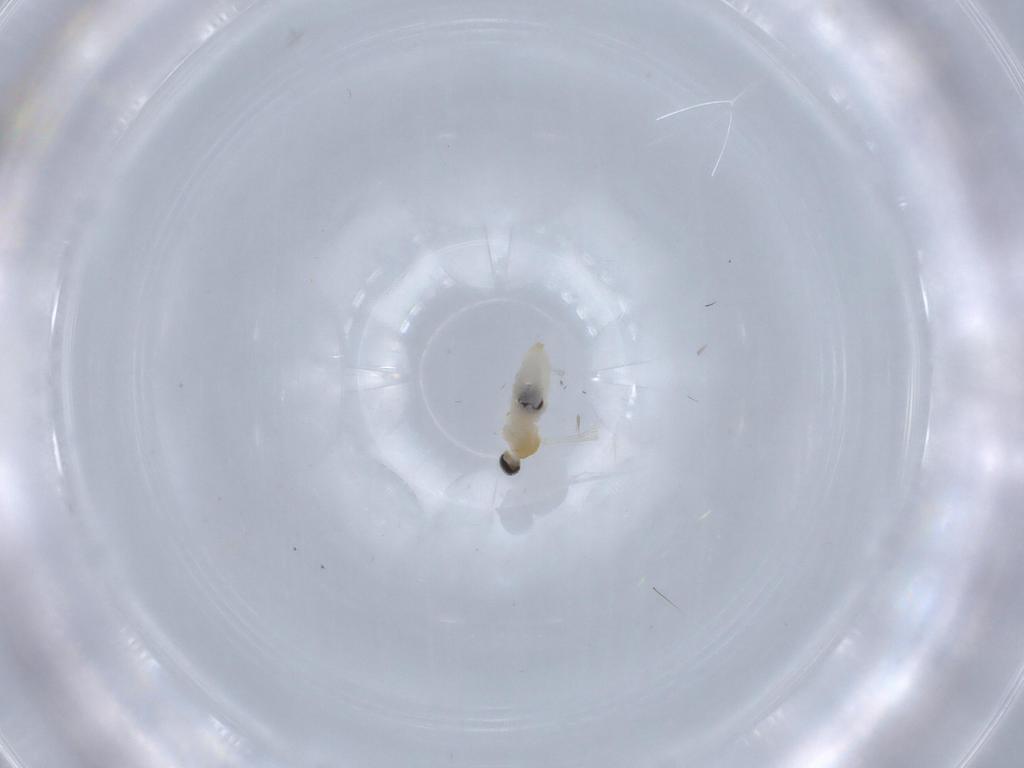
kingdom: Animalia
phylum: Arthropoda
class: Insecta
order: Diptera
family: Cecidomyiidae
